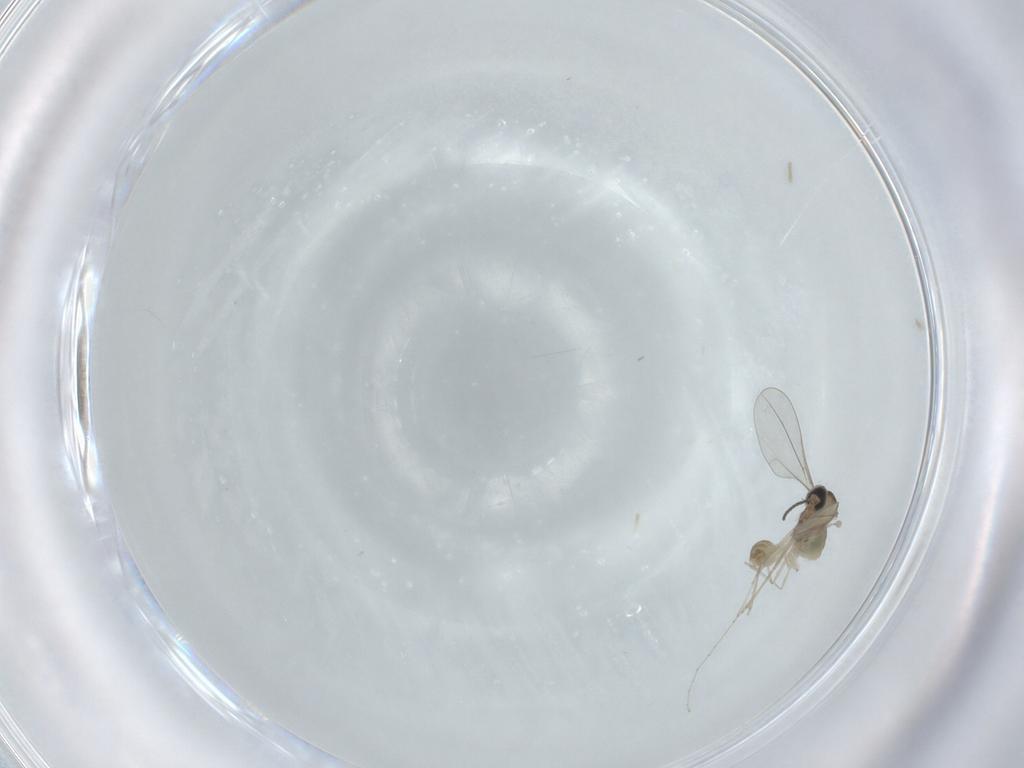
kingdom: Animalia
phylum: Arthropoda
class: Insecta
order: Diptera
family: Cecidomyiidae
